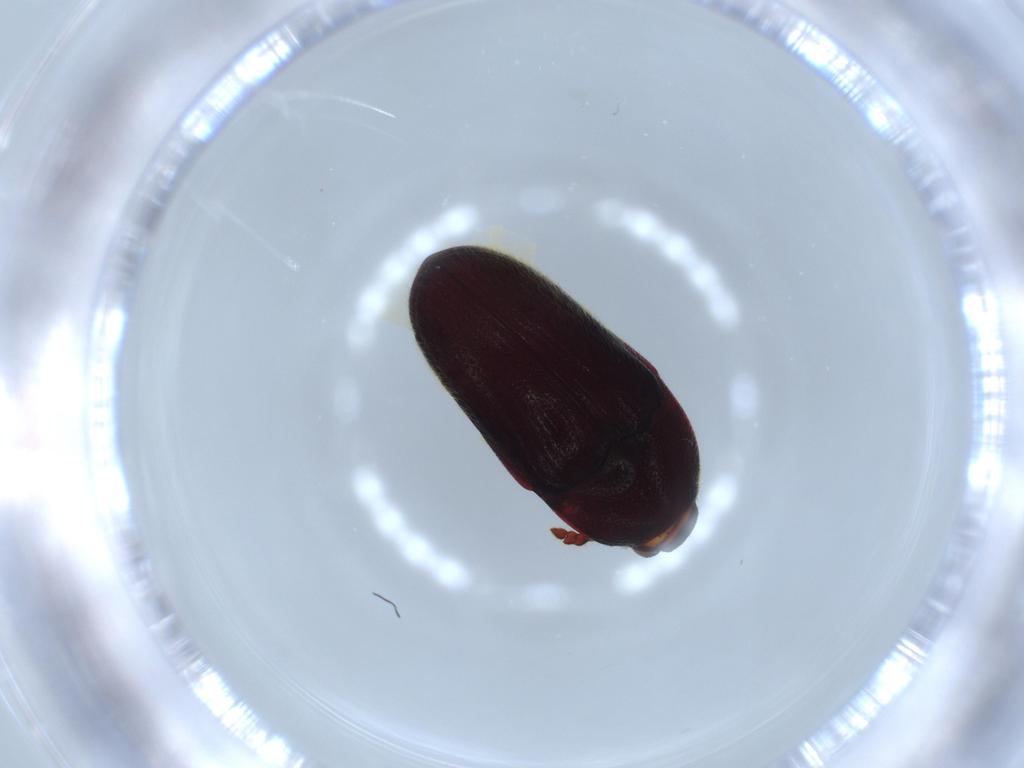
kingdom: Animalia
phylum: Arthropoda
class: Insecta
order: Coleoptera
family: Throscidae
